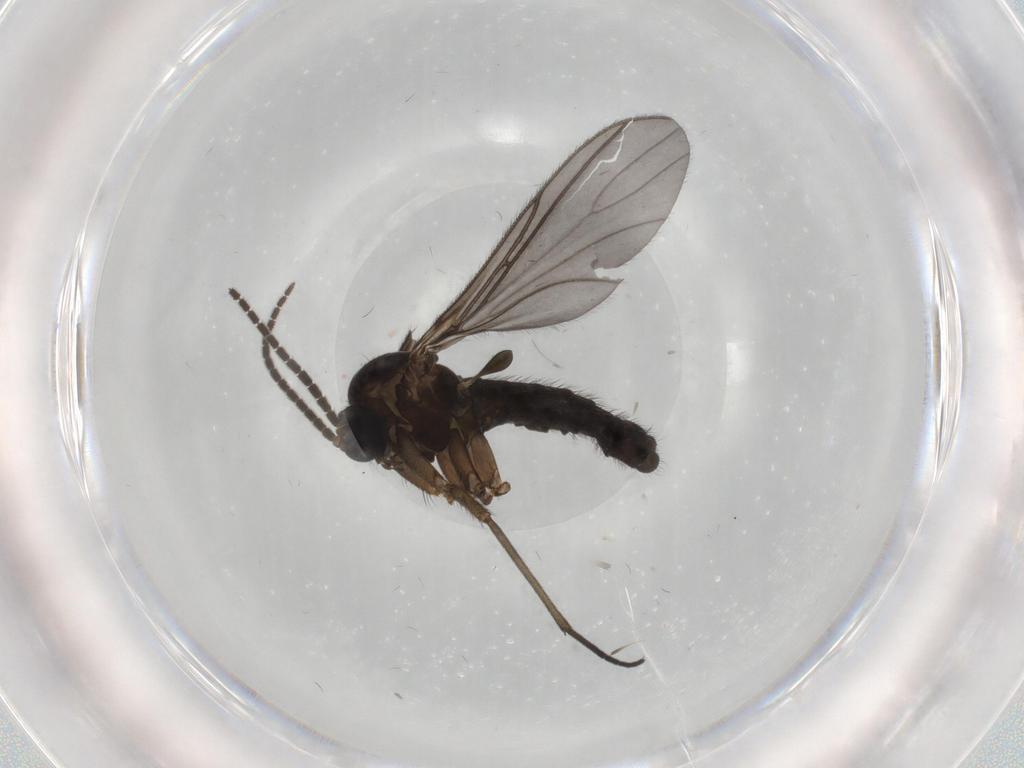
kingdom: Animalia
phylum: Arthropoda
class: Insecta
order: Diptera
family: Sciaridae
